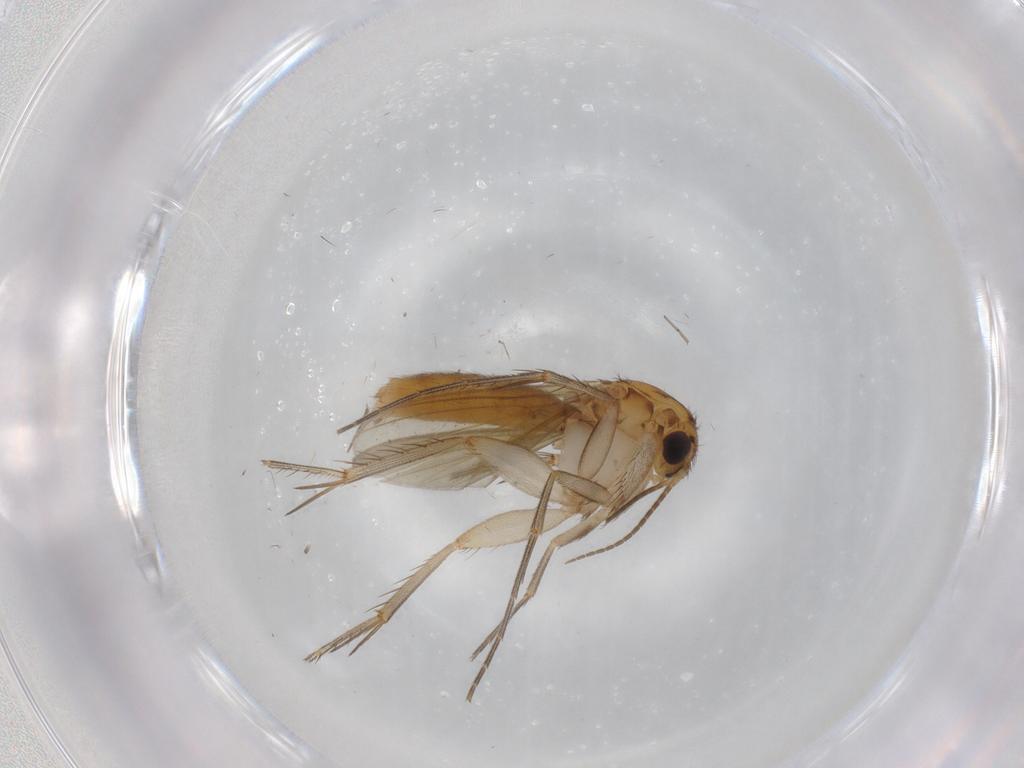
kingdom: Animalia
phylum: Arthropoda
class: Insecta
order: Diptera
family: Mycetophilidae
